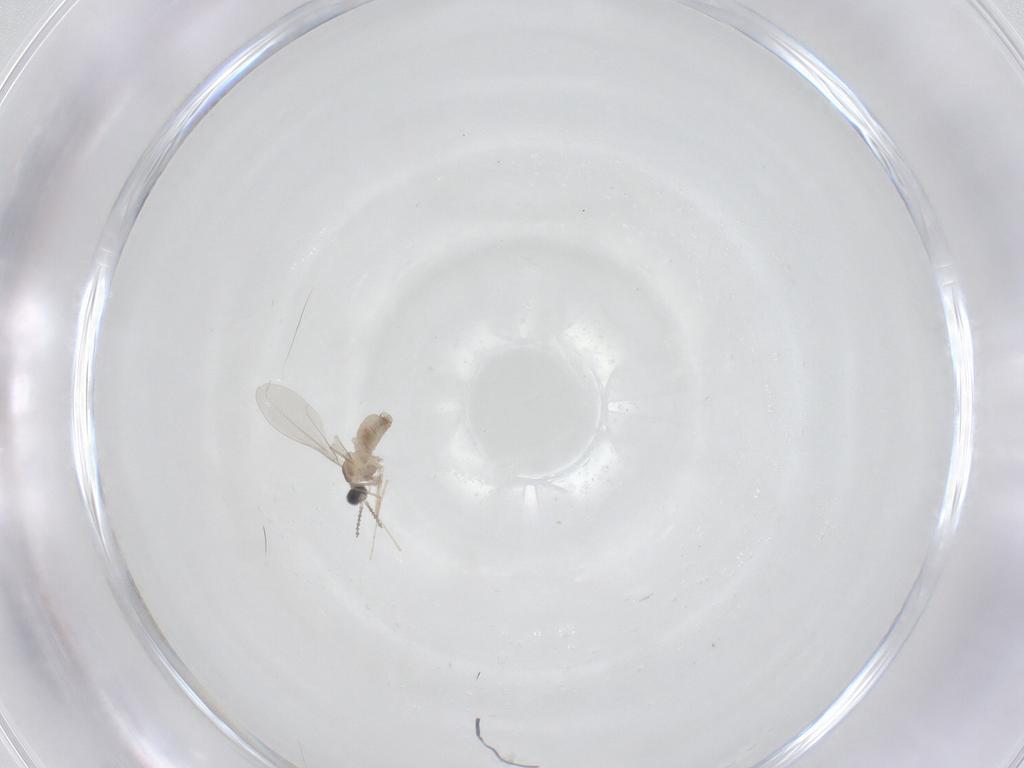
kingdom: Animalia
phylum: Arthropoda
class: Insecta
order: Diptera
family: Cecidomyiidae
